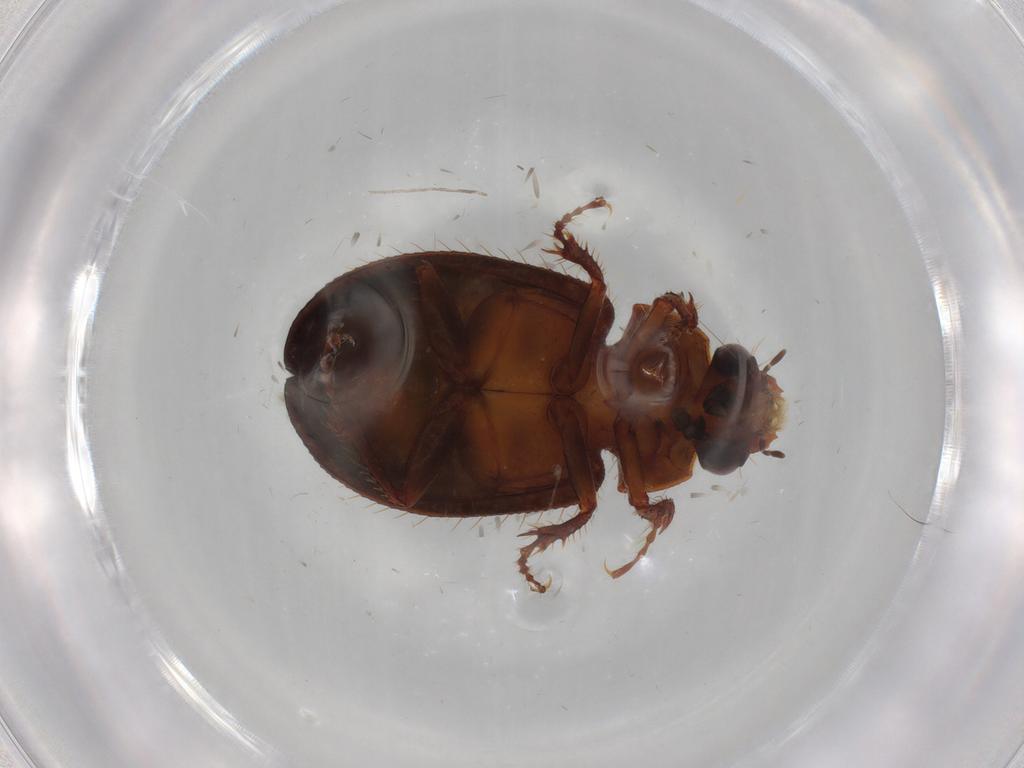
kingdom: Animalia
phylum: Arthropoda
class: Insecta
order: Coleoptera
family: Hybosoridae
